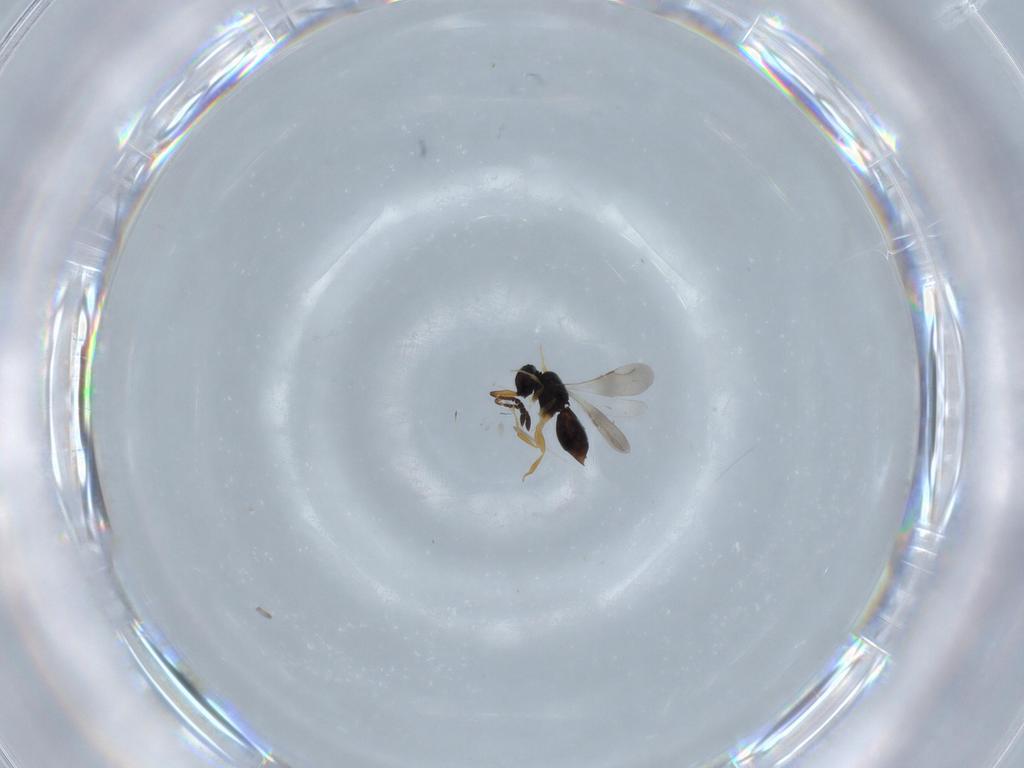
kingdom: Animalia
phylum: Arthropoda
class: Insecta
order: Hymenoptera
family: Formicidae
